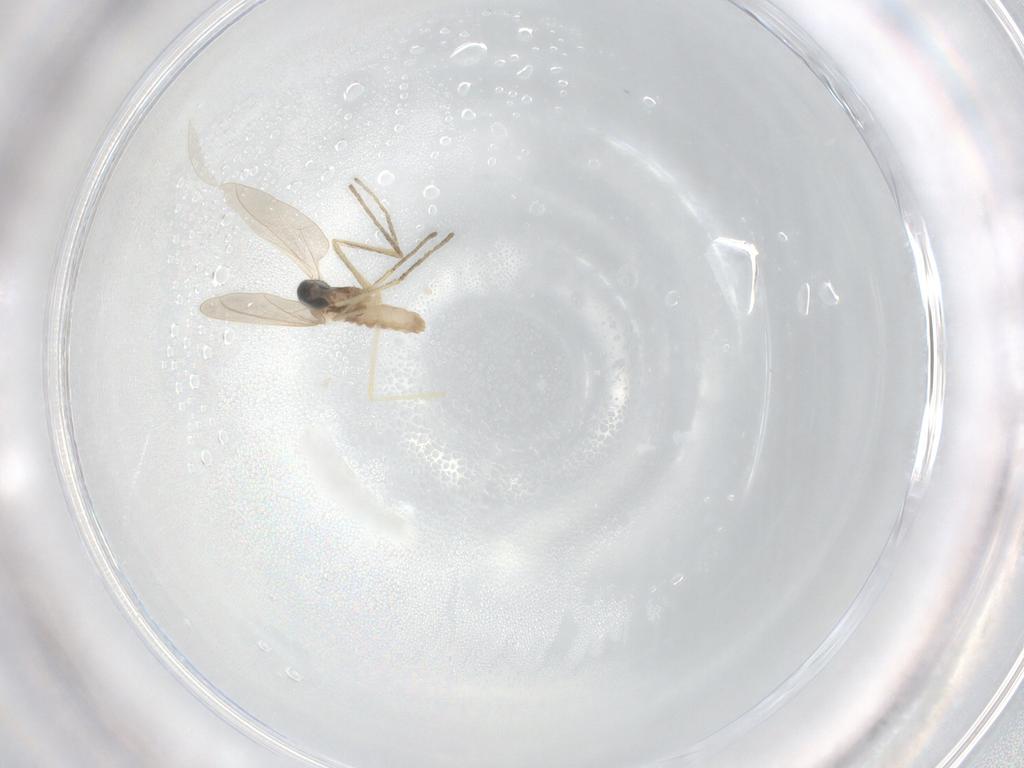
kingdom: Animalia
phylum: Arthropoda
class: Insecta
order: Diptera
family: Cecidomyiidae
